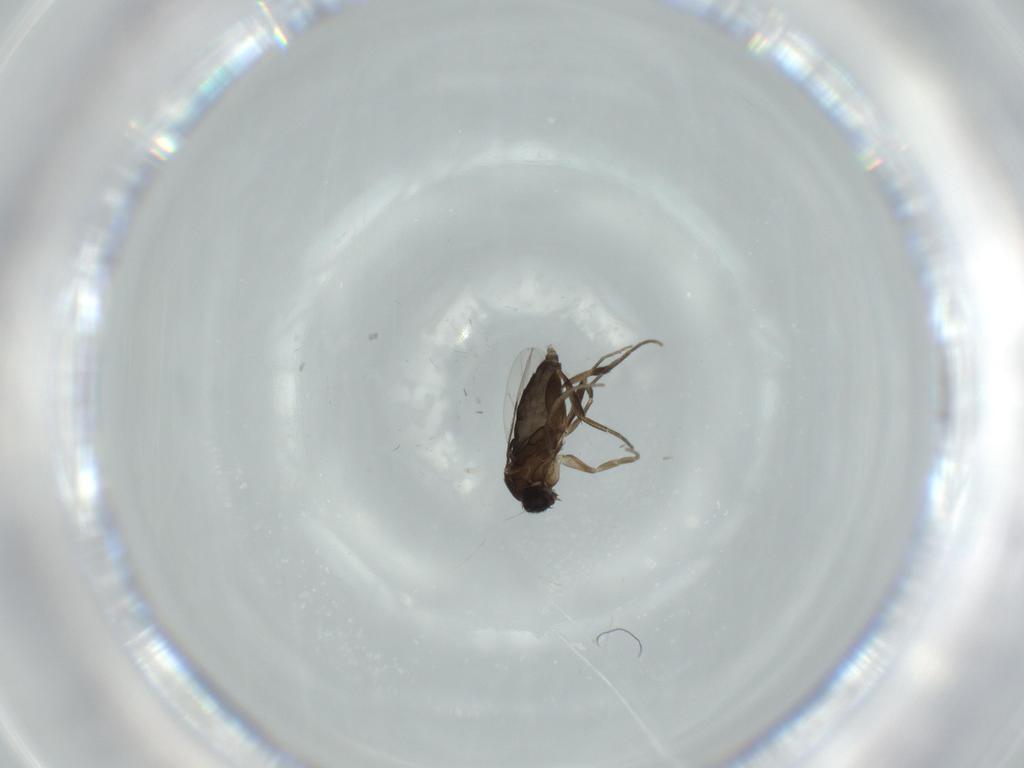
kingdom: Animalia
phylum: Arthropoda
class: Insecta
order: Diptera
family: Phoridae
